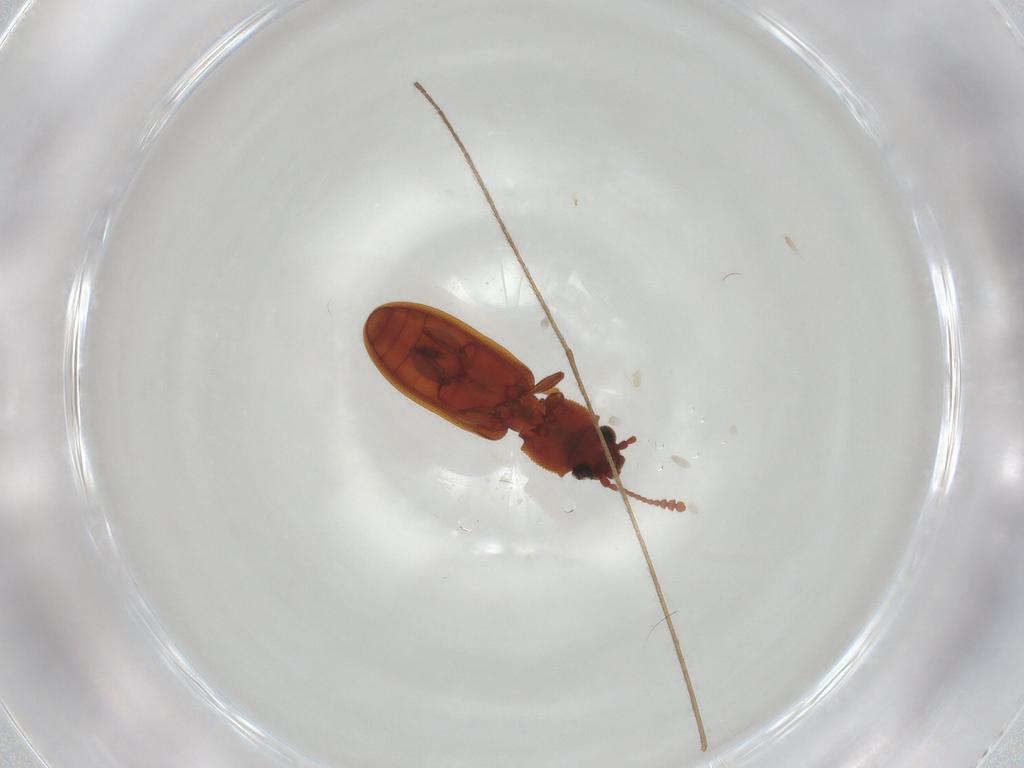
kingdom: Animalia
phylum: Arthropoda
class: Insecta
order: Coleoptera
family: Silvanidae
